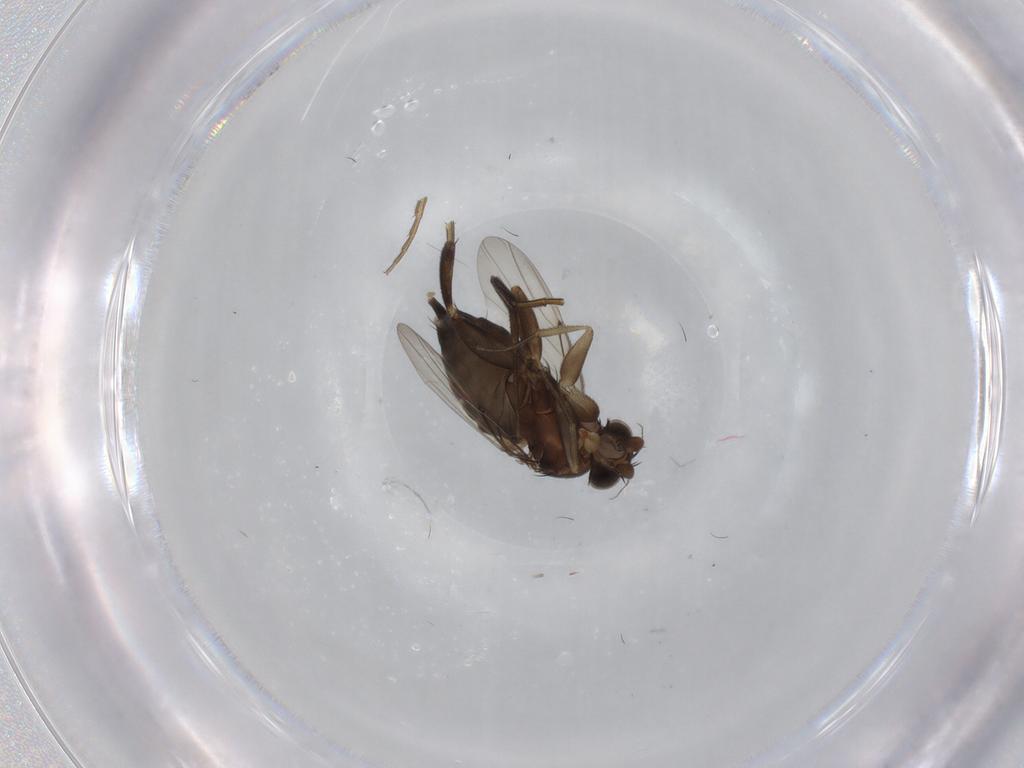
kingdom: Animalia
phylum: Arthropoda
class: Insecta
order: Diptera
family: Phoridae
